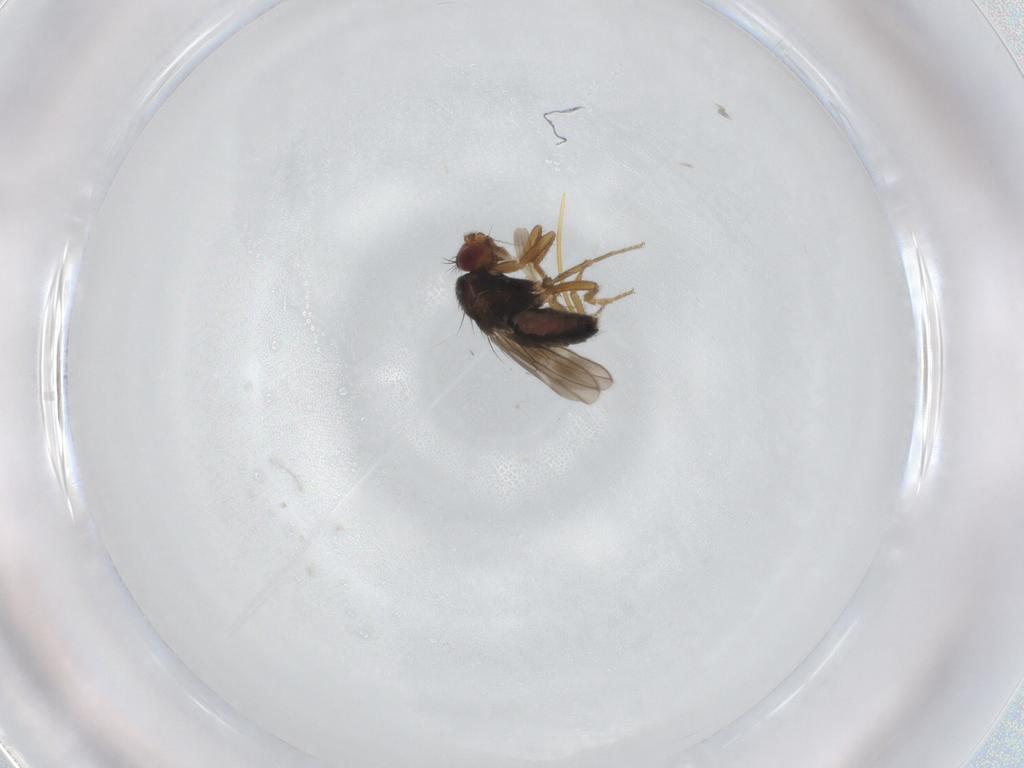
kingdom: Animalia
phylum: Arthropoda
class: Insecta
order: Diptera
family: Sphaeroceridae
